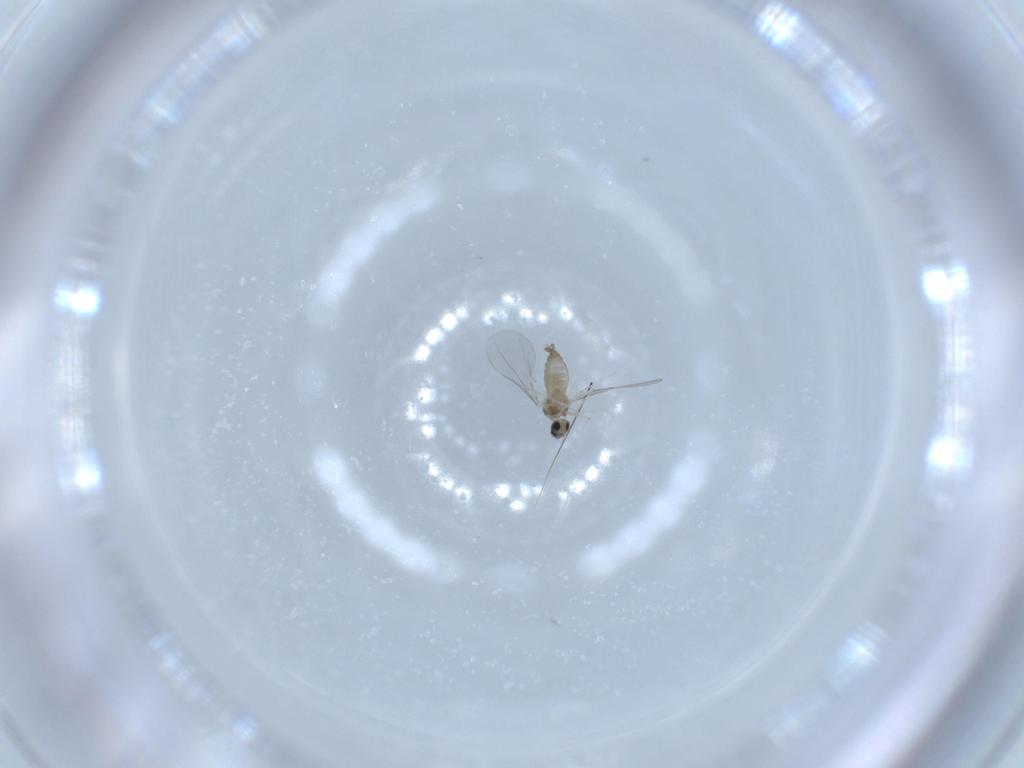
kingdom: Animalia
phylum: Arthropoda
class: Insecta
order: Diptera
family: Cecidomyiidae
